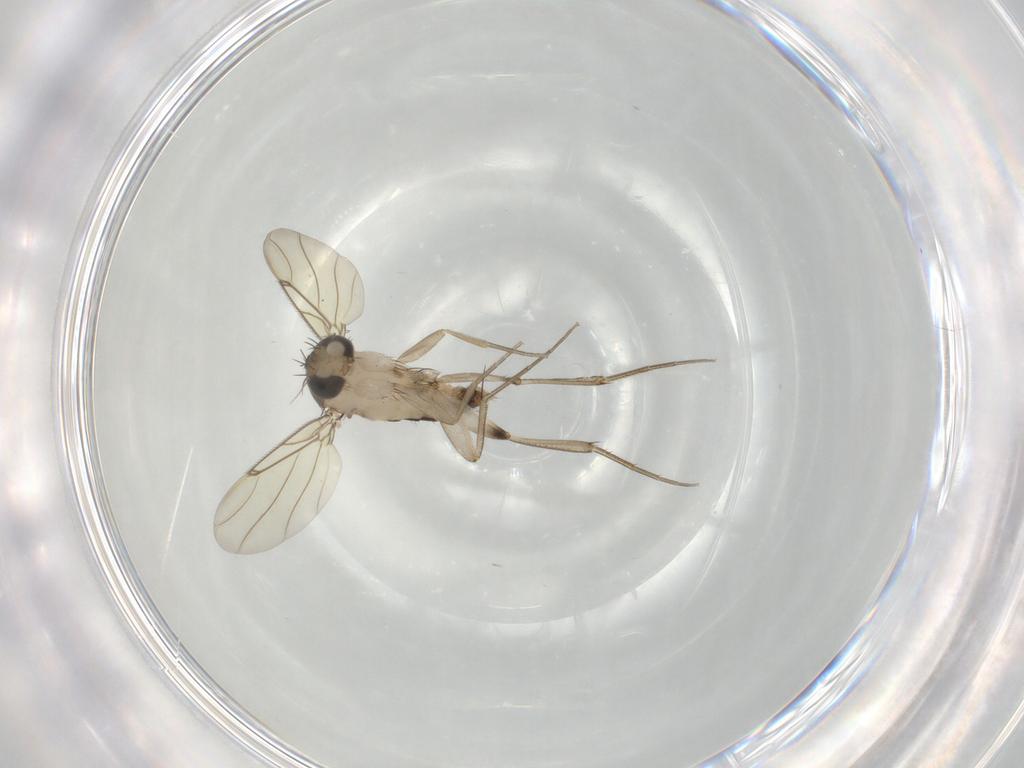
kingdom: Animalia
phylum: Arthropoda
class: Insecta
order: Diptera
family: Phoridae
